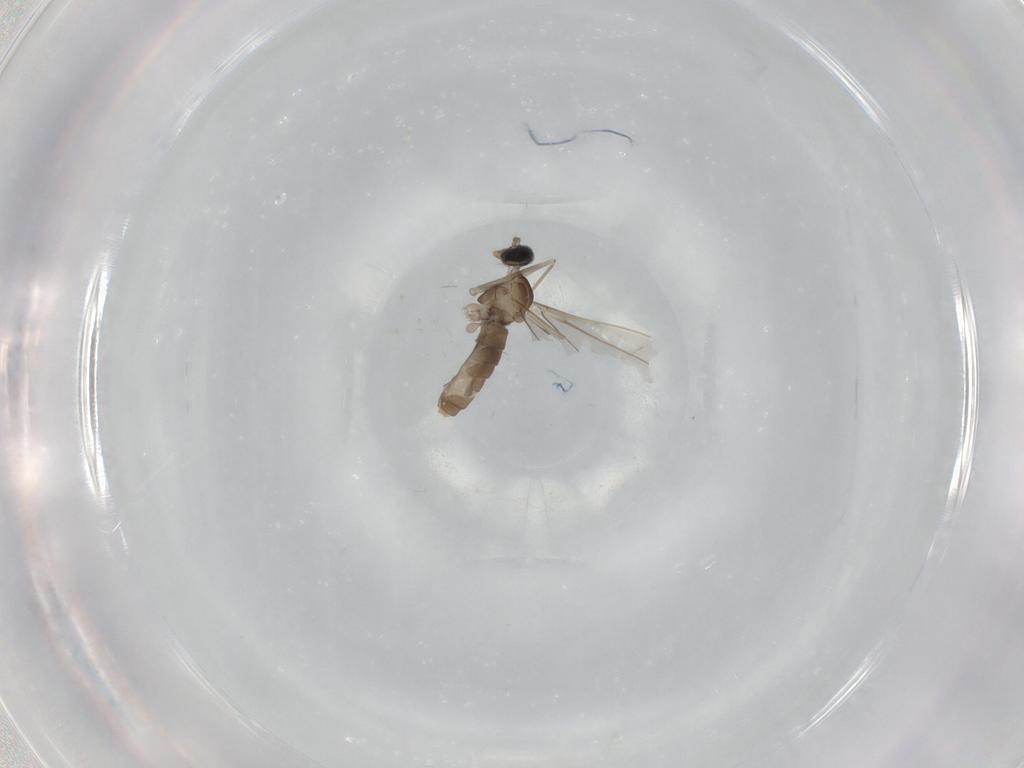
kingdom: Animalia
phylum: Arthropoda
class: Insecta
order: Diptera
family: Cecidomyiidae
